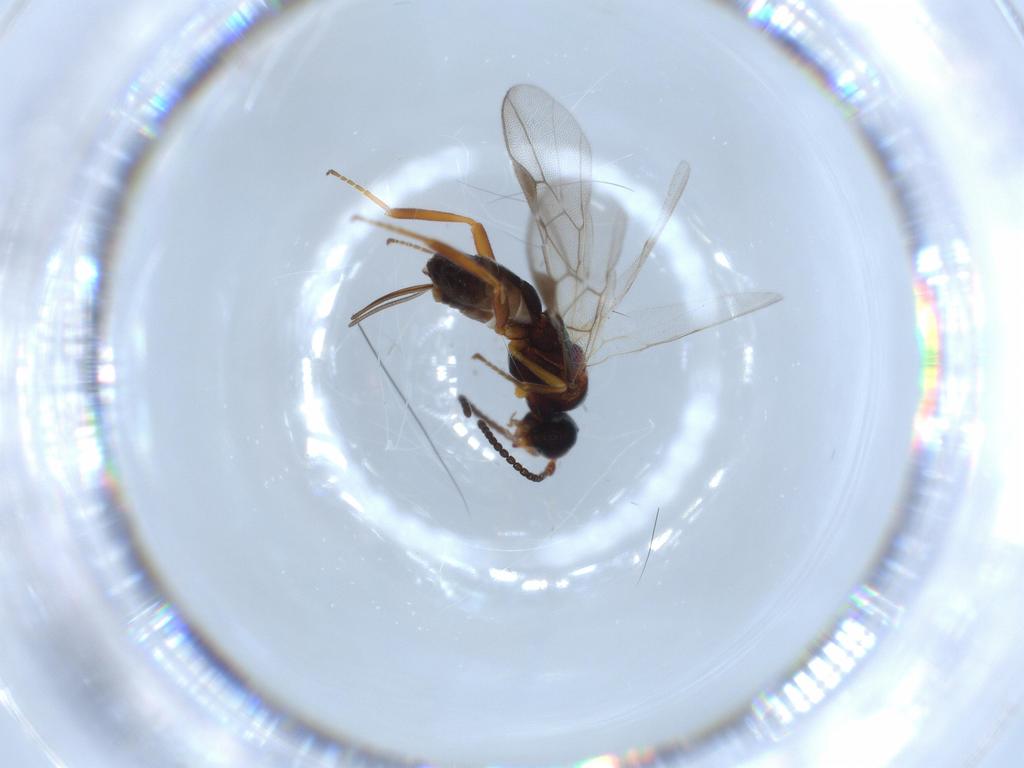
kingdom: Animalia
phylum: Arthropoda
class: Insecta
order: Hymenoptera
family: Braconidae
